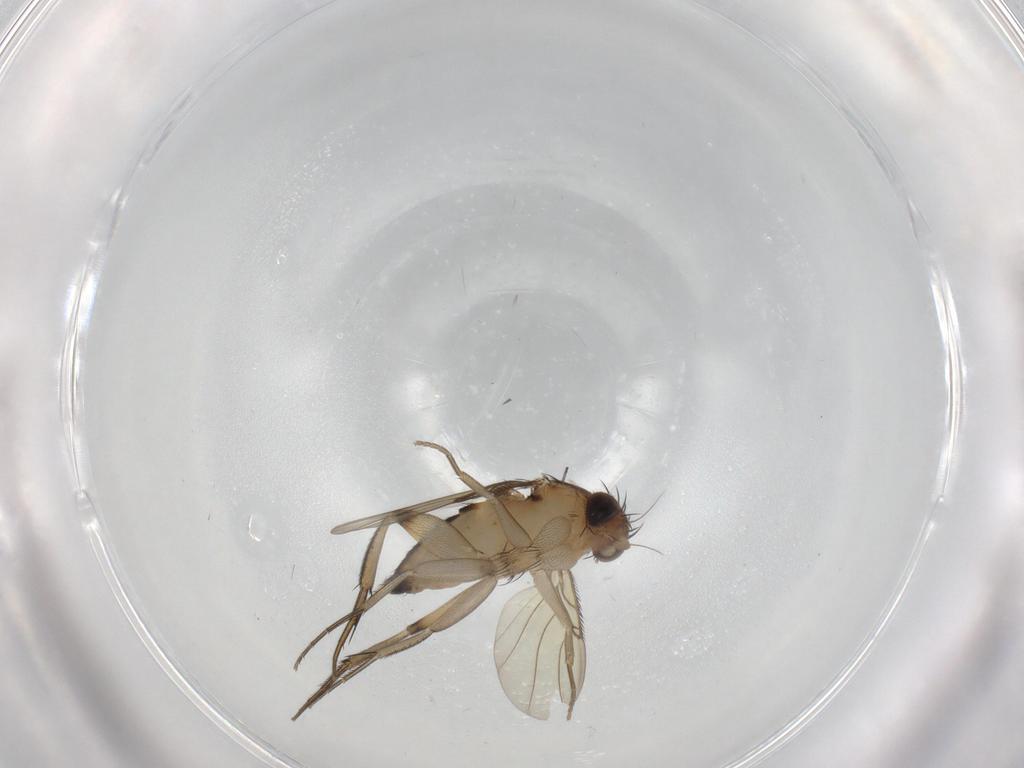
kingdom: Animalia
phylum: Arthropoda
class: Insecta
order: Diptera
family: Phoridae
